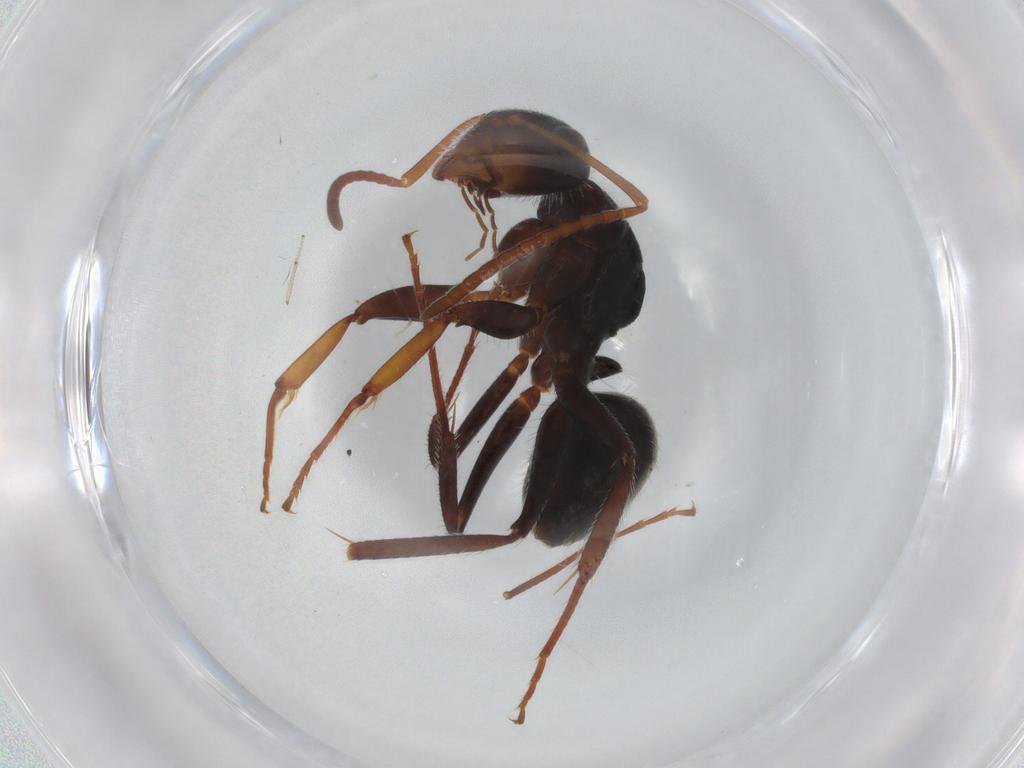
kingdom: Animalia
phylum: Arthropoda
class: Insecta
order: Hymenoptera
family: Formicidae
